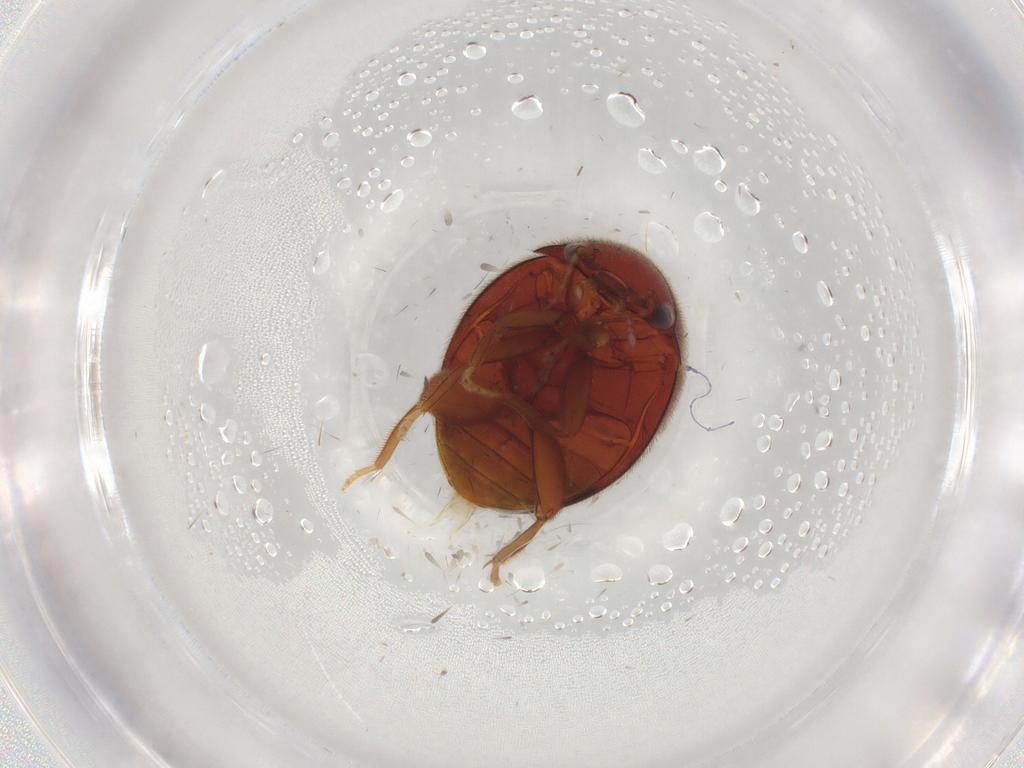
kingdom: Animalia
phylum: Arthropoda
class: Insecta
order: Coleoptera
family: Scirtidae
